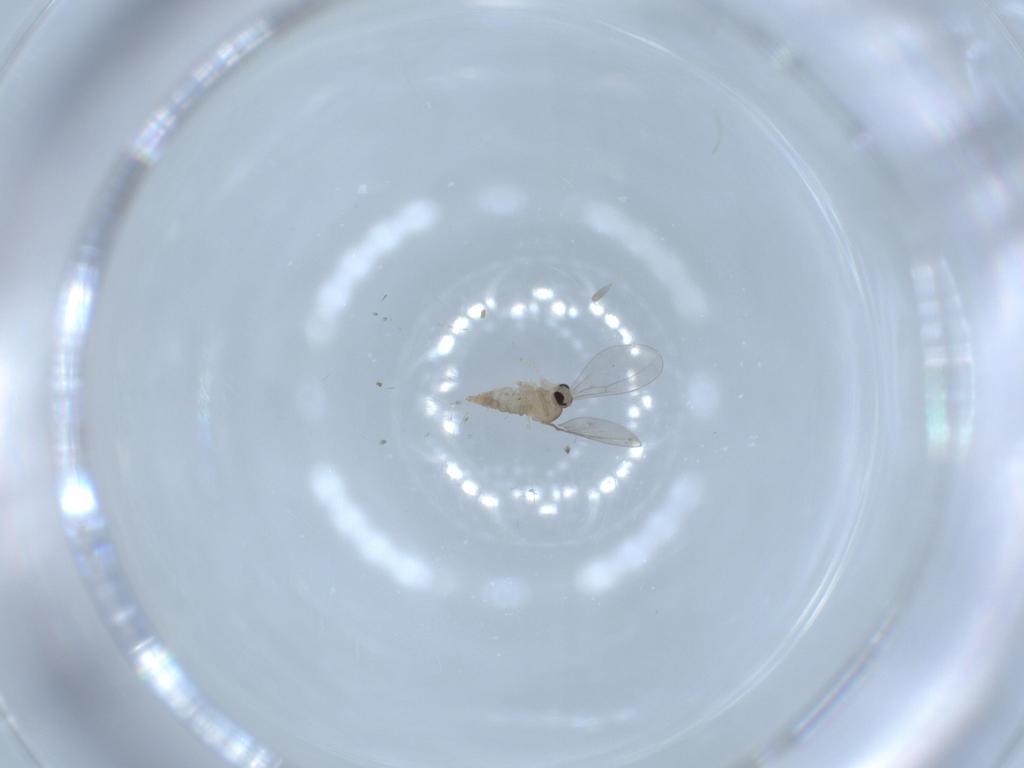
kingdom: Animalia
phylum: Arthropoda
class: Insecta
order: Diptera
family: Cecidomyiidae
